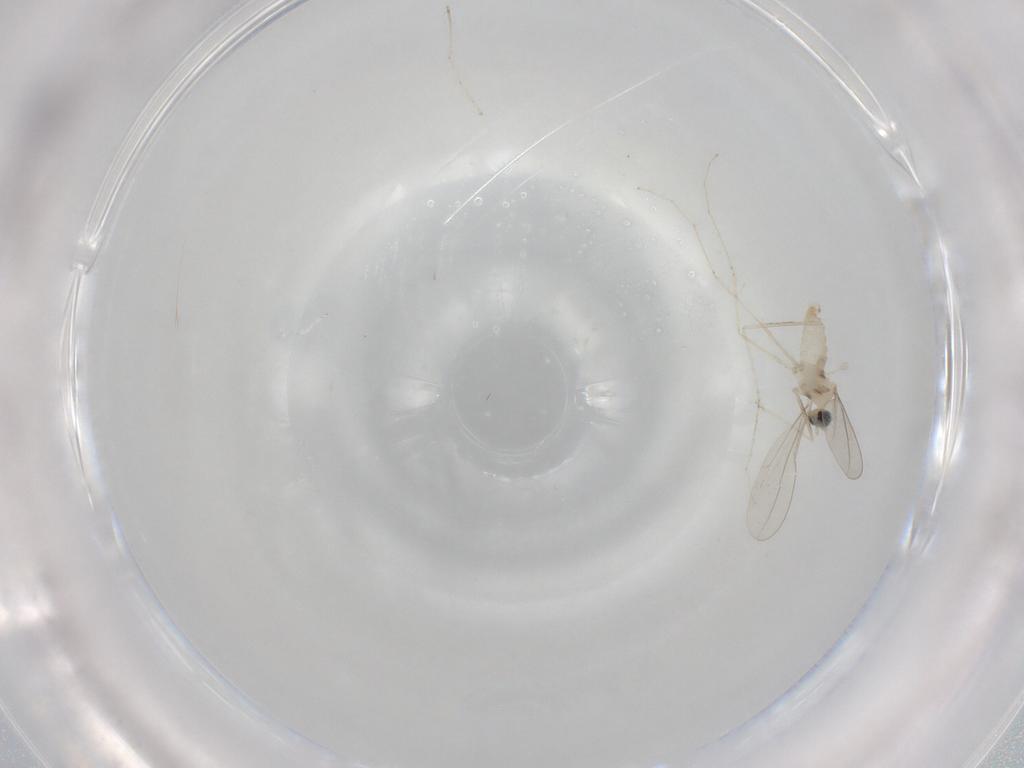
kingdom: Animalia
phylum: Arthropoda
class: Insecta
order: Diptera
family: Cecidomyiidae
